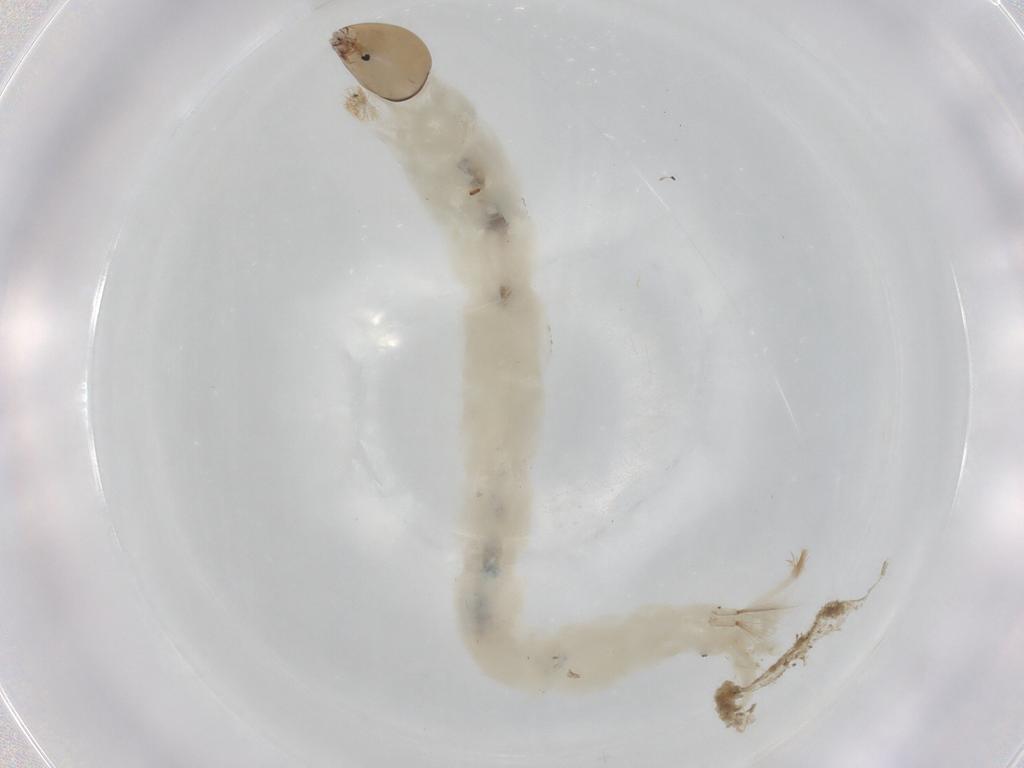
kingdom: Animalia
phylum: Arthropoda
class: Insecta
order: Diptera
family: Chironomidae
